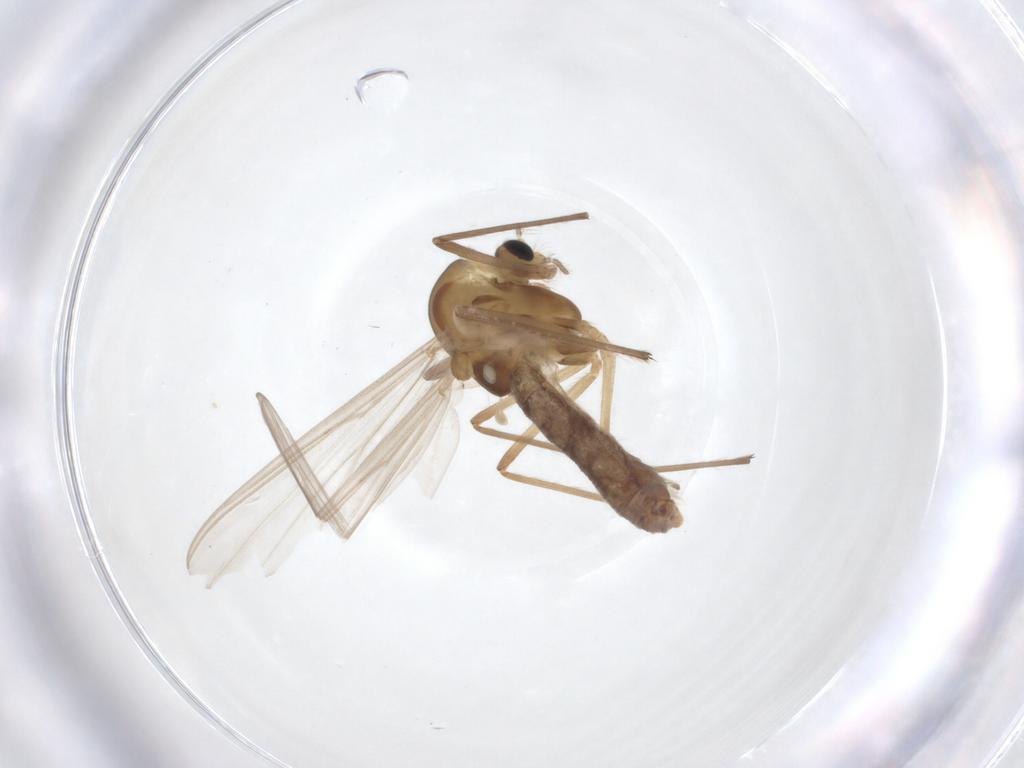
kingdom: Animalia
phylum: Arthropoda
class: Insecta
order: Diptera
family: Chironomidae
